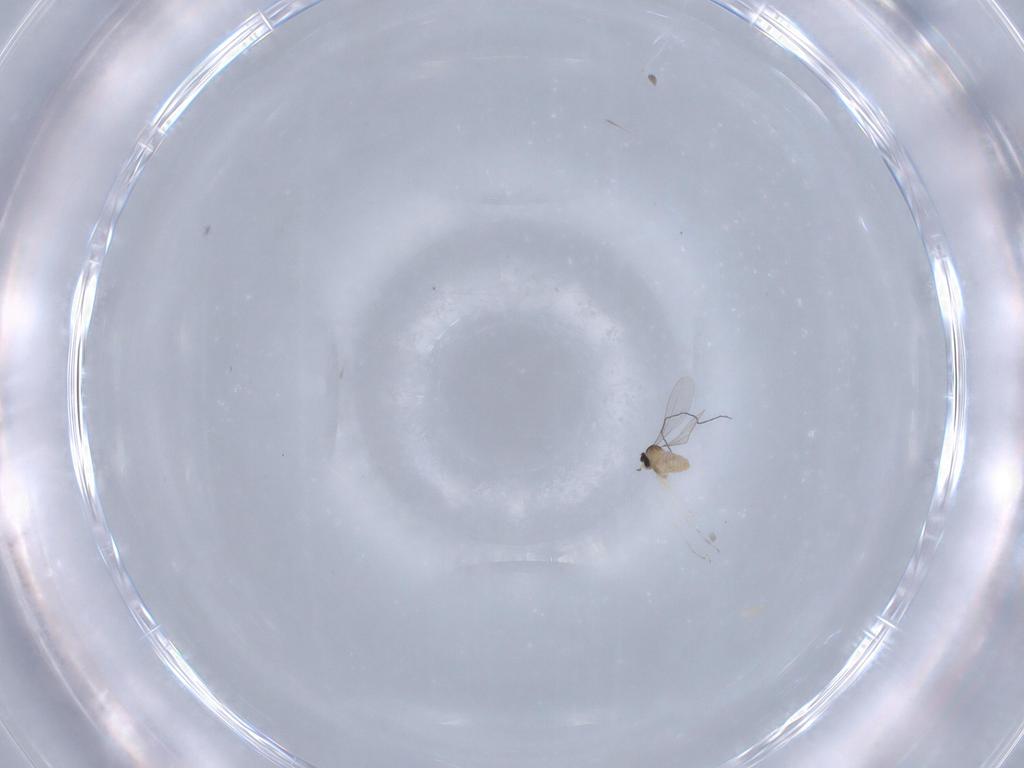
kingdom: Animalia
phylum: Arthropoda
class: Insecta
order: Diptera
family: Cecidomyiidae
